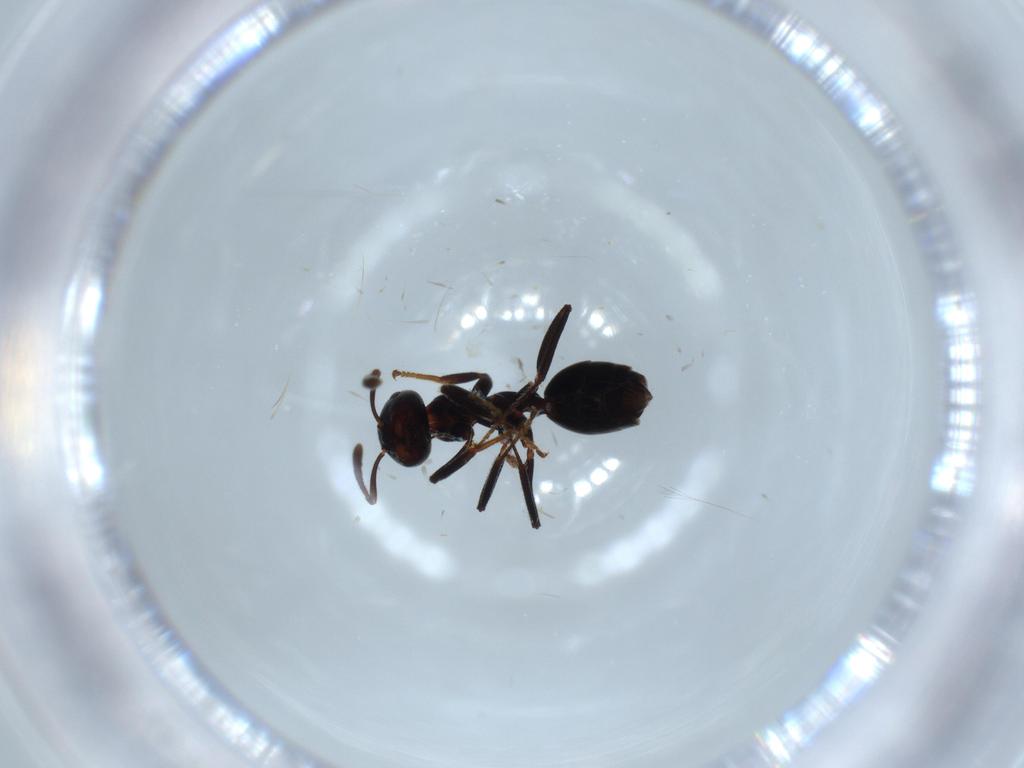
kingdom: Animalia
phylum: Arthropoda
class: Insecta
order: Hymenoptera
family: Formicidae
